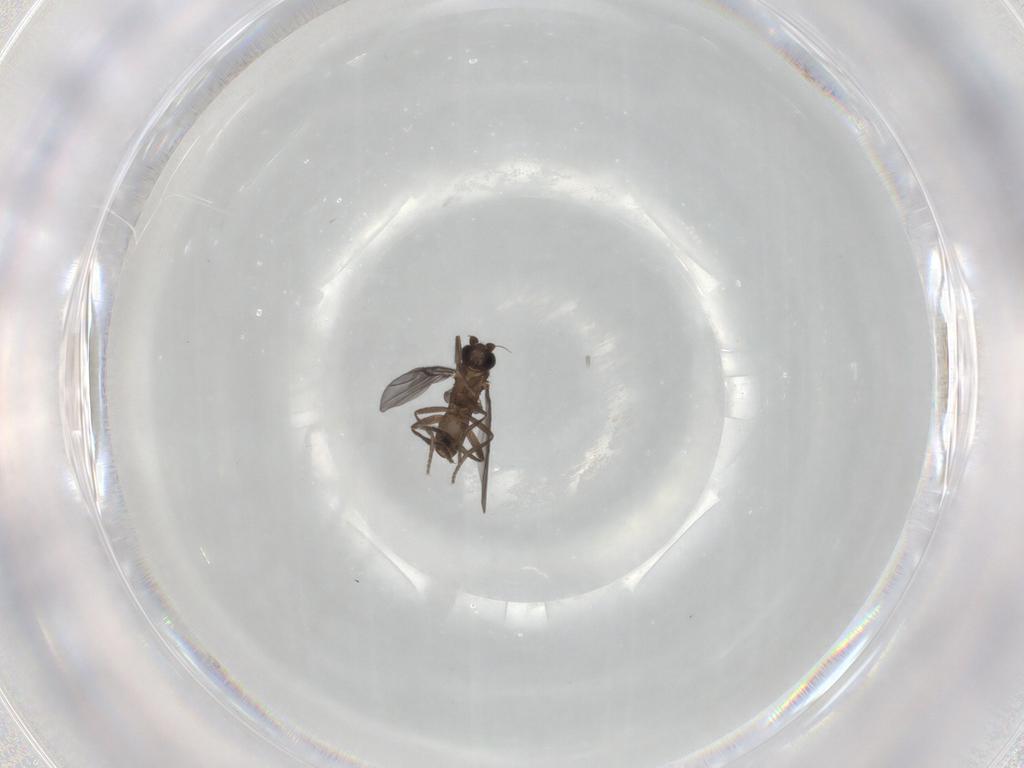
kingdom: Animalia
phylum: Arthropoda
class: Insecta
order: Diptera
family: Phoridae
